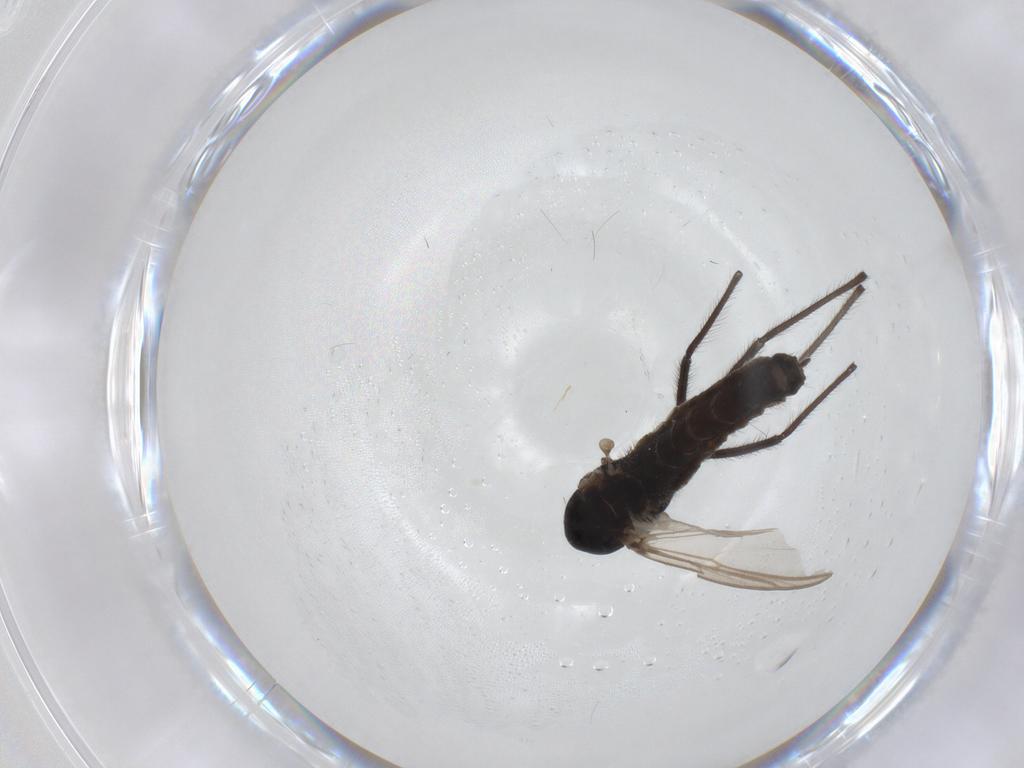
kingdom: Animalia
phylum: Arthropoda
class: Insecta
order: Diptera
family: Chironomidae
